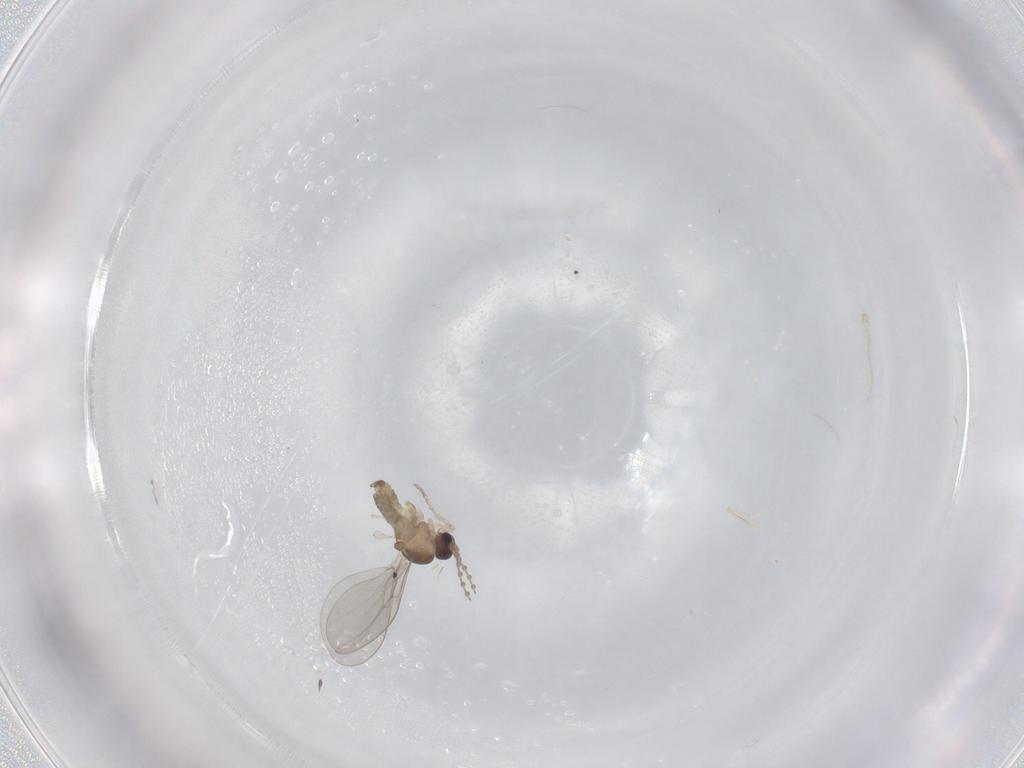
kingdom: Animalia
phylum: Arthropoda
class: Insecta
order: Diptera
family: Cecidomyiidae
